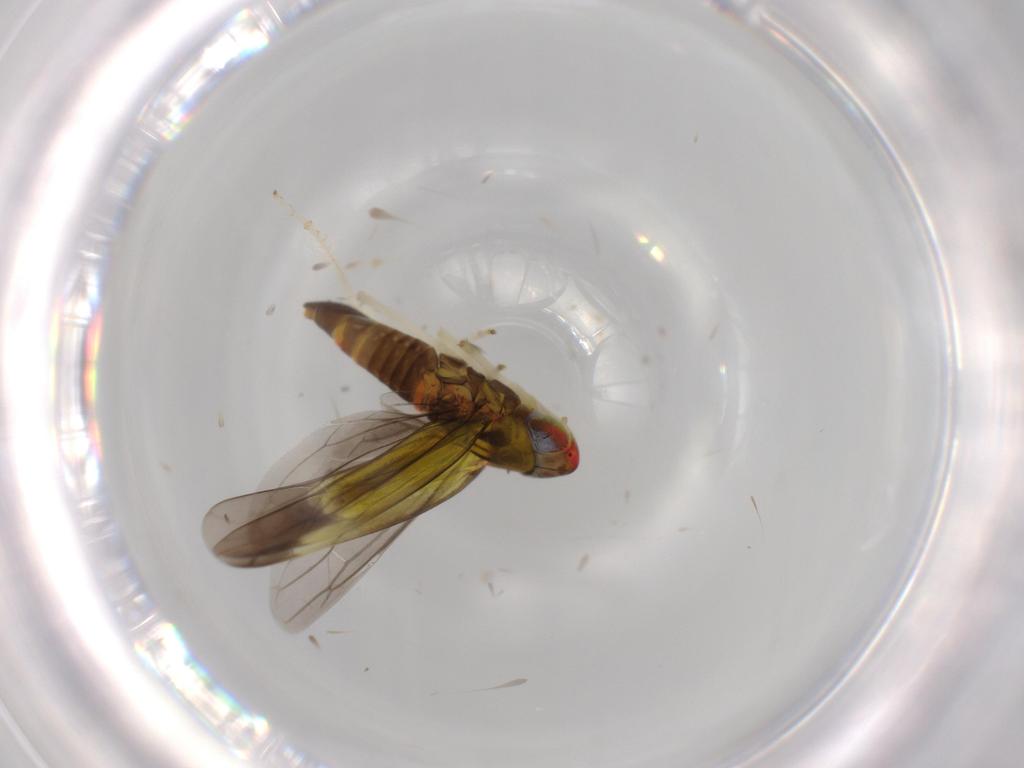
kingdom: Animalia
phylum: Arthropoda
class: Insecta
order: Hemiptera
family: Cicadellidae
